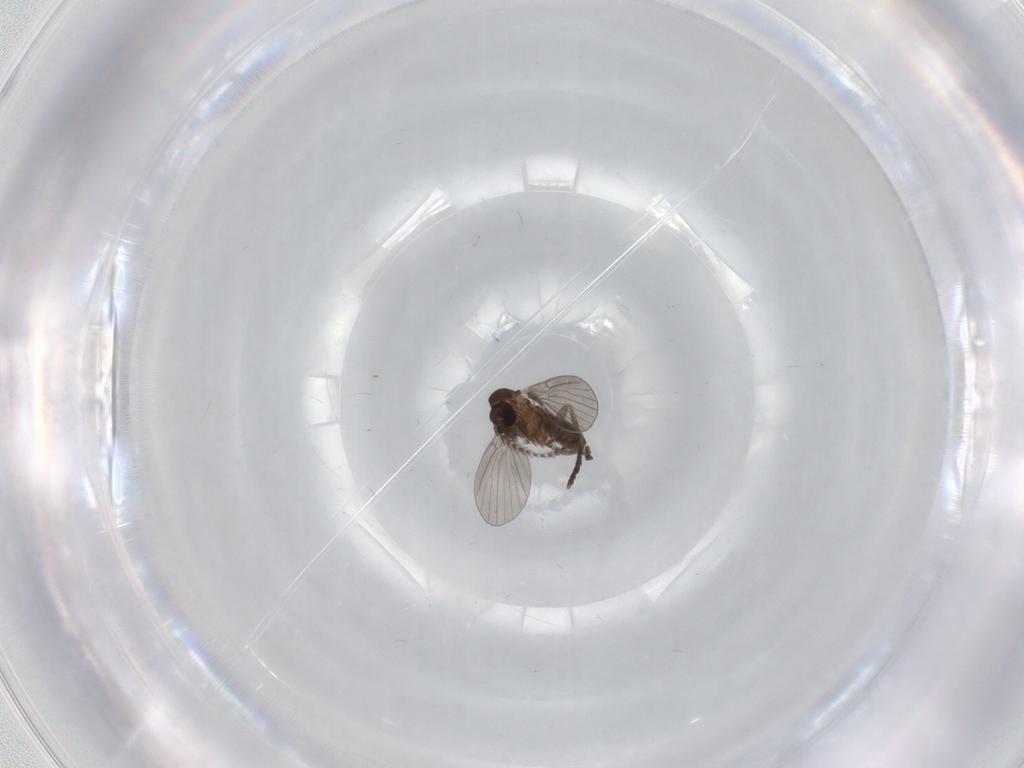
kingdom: Animalia
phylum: Arthropoda
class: Insecta
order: Diptera
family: Chironomidae
